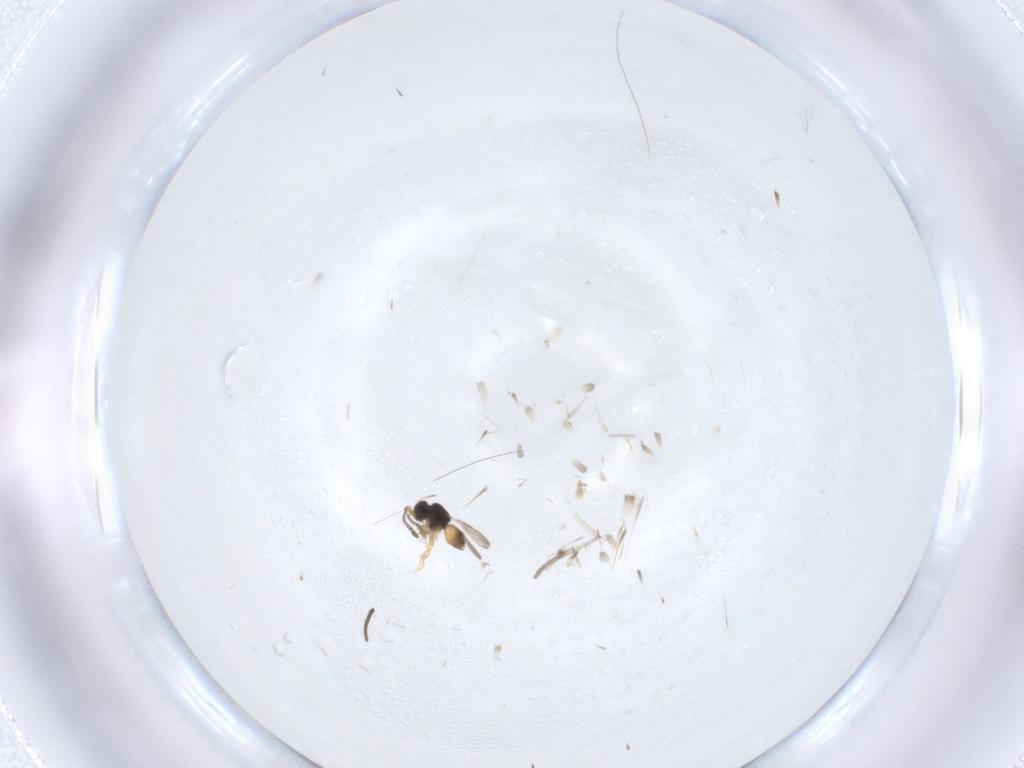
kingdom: Animalia
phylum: Arthropoda
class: Insecta
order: Diptera
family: Psychodidae
